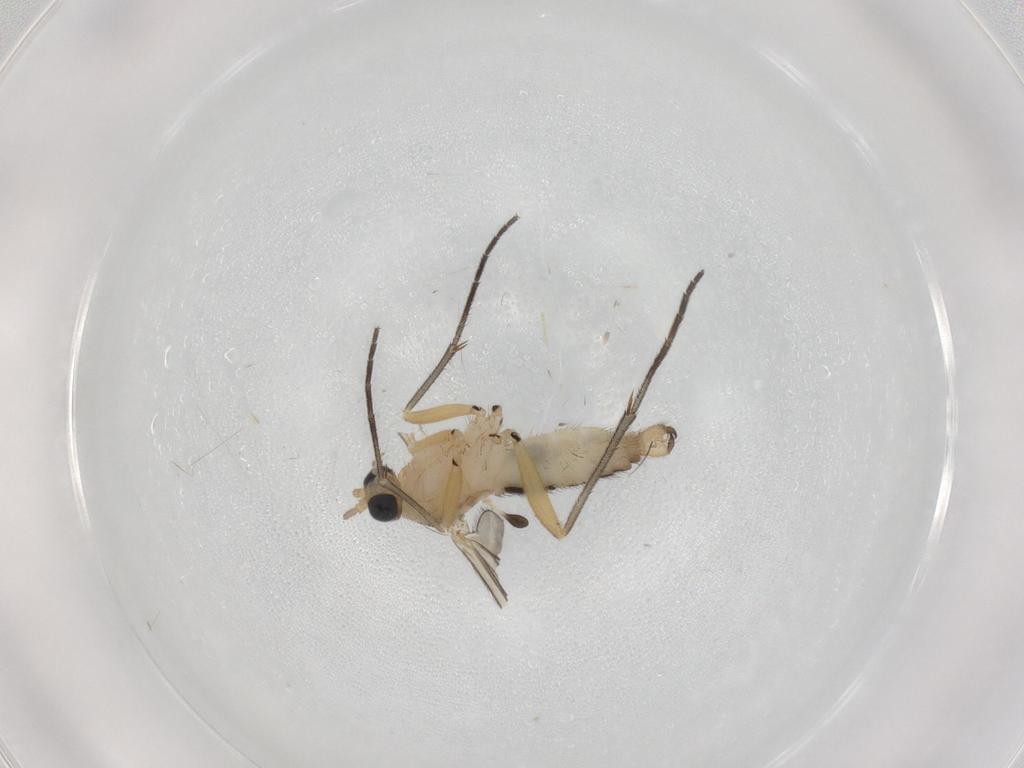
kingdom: Animalia
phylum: Arthropoda
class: Insecta
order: Diptera
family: Sciaridae
